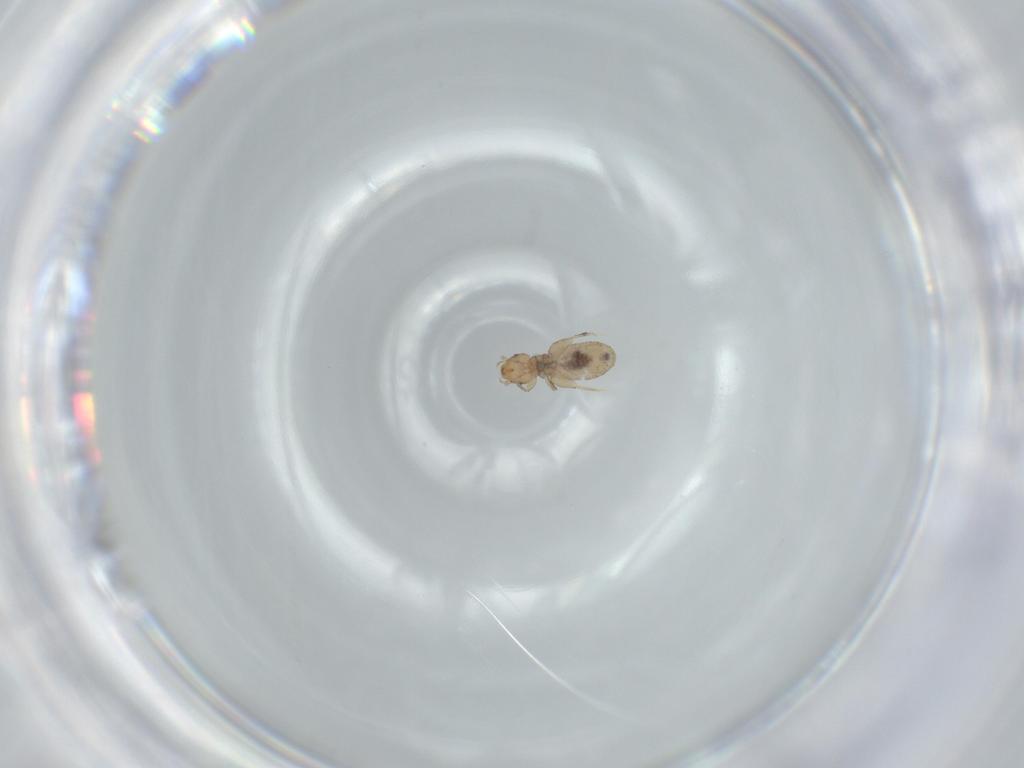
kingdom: Animalia
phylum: Arthropoda
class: Insecta
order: Psocodea
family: Liposcelididae
